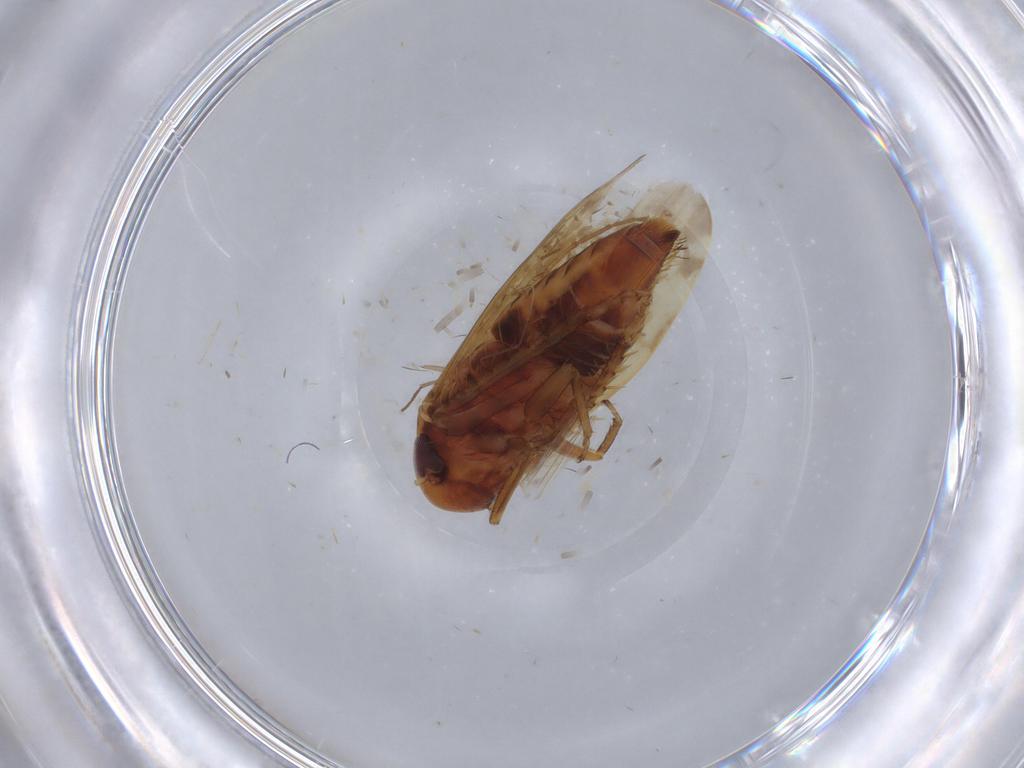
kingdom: Animalia
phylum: Arthropoda
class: Insecta
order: Hemiptera
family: Cicadellidae
